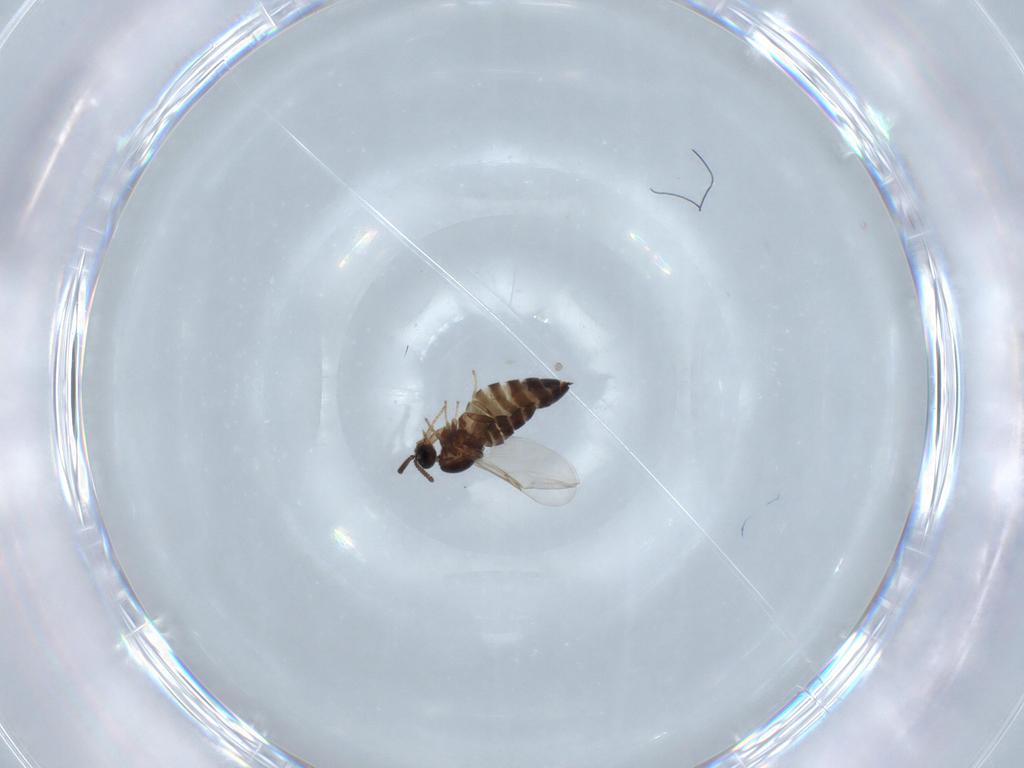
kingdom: Animalia
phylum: Arthropoda
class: Insecta
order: Diptera
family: Scatopsidae
